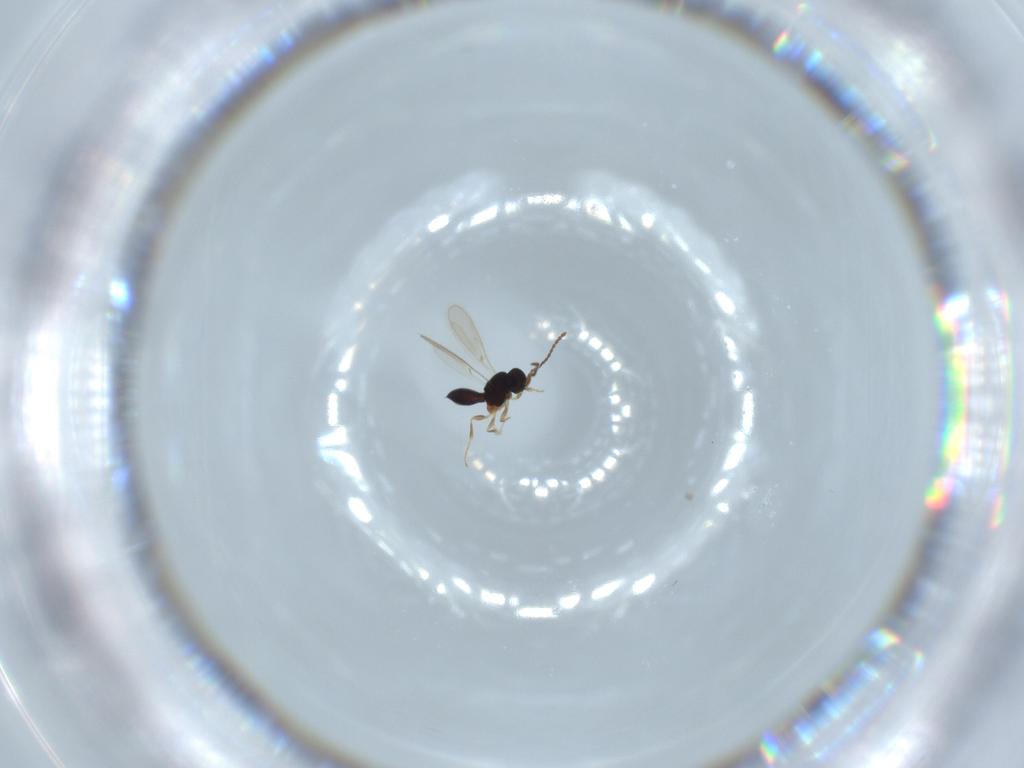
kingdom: Animalia
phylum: Arthropoda
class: Insecta
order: Hymenoptera
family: Scelionidae
